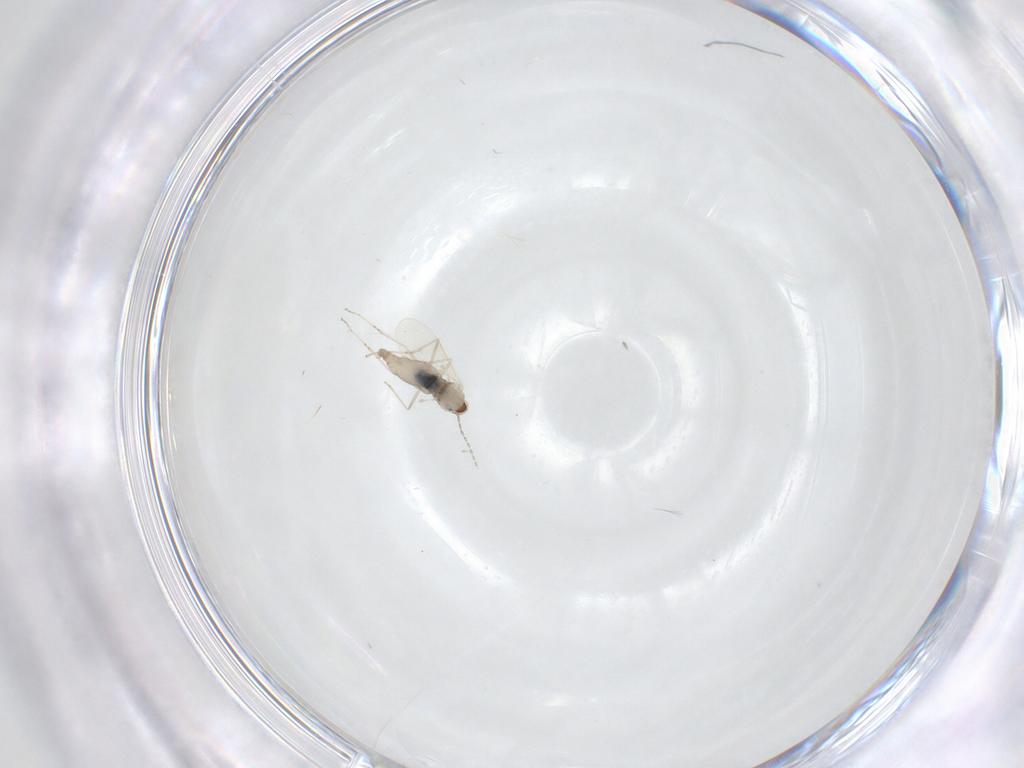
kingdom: Animalia
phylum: Arthropoda
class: Insecta
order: Diptera
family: Cecidomyiidae
